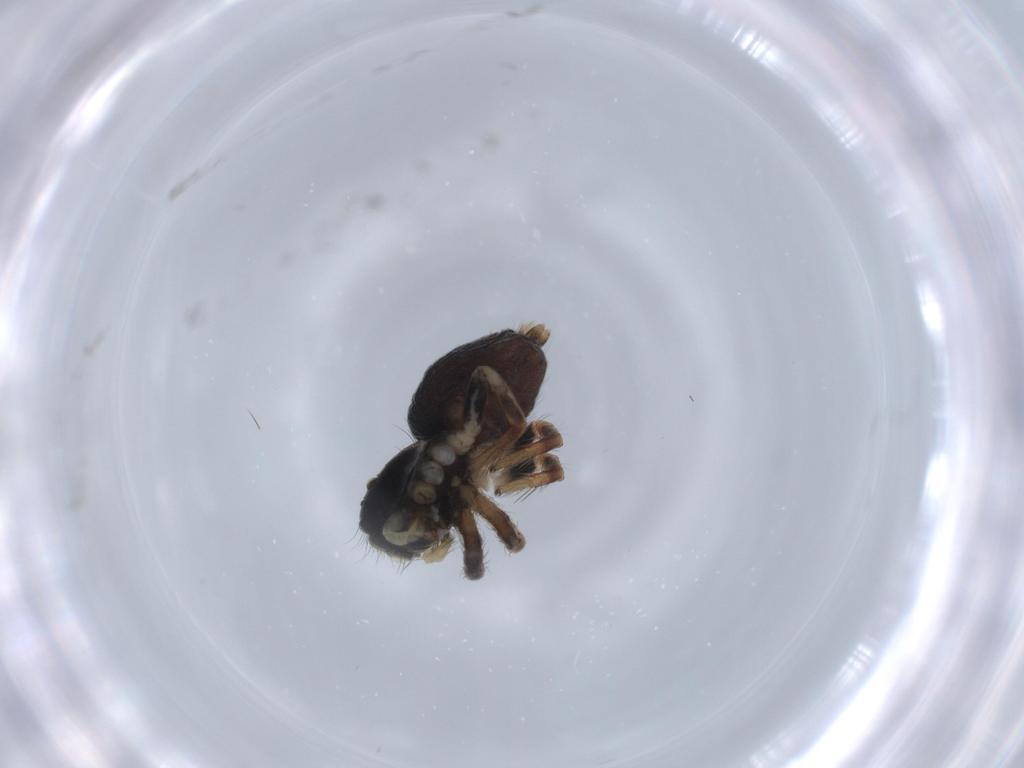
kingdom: Animalia
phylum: Arthropoda
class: Arachnida
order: Araneae
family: Salticidae
